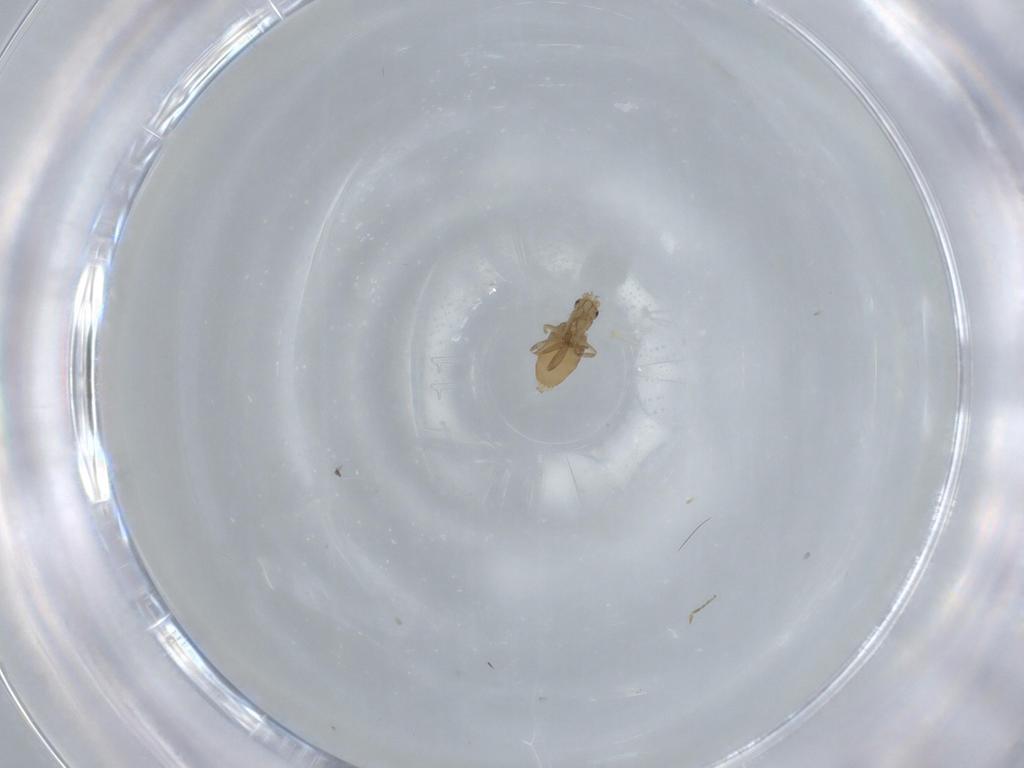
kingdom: Animalia
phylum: Arthropoda
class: Insecta
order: Diptera
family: Phoridae
